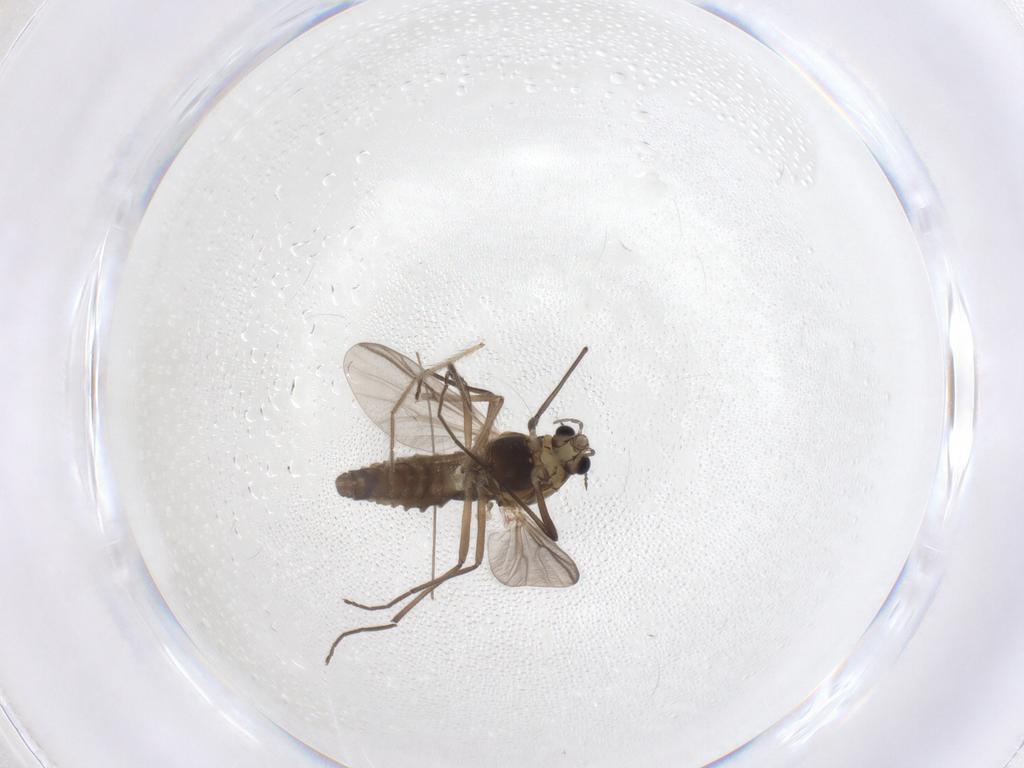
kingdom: Animalia
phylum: Arthropoda
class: Insecta
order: Diptera
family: Chironomidae
